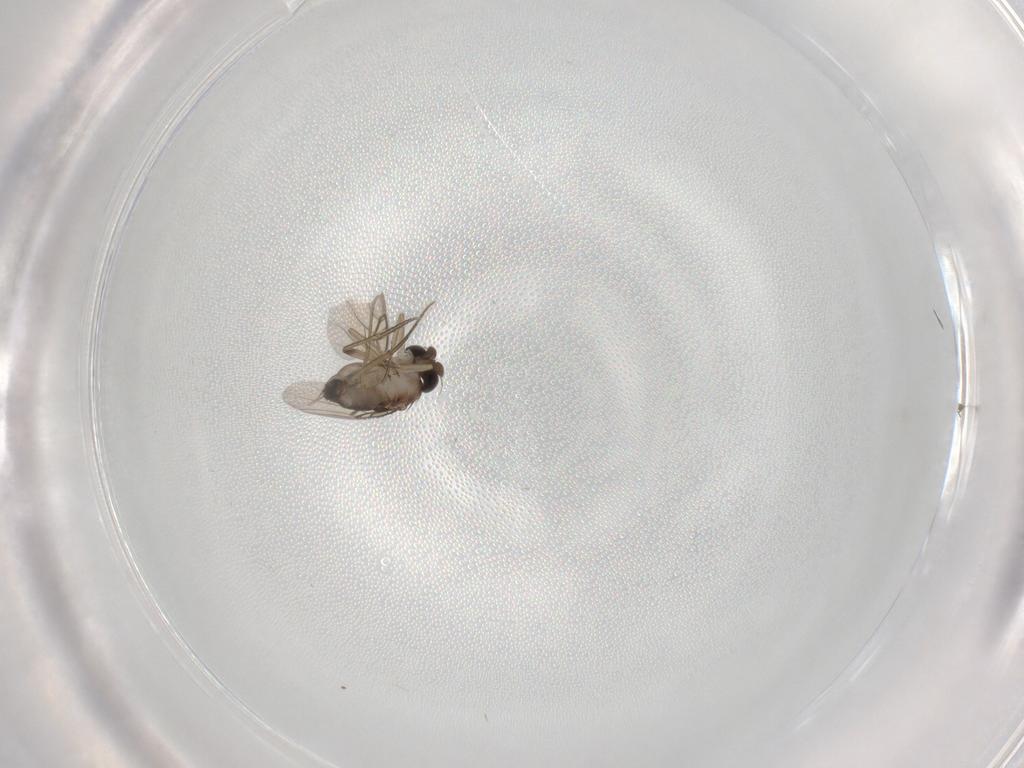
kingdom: Animalia
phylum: Arthropoda
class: Insecta
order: Diptera
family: Phoridae
